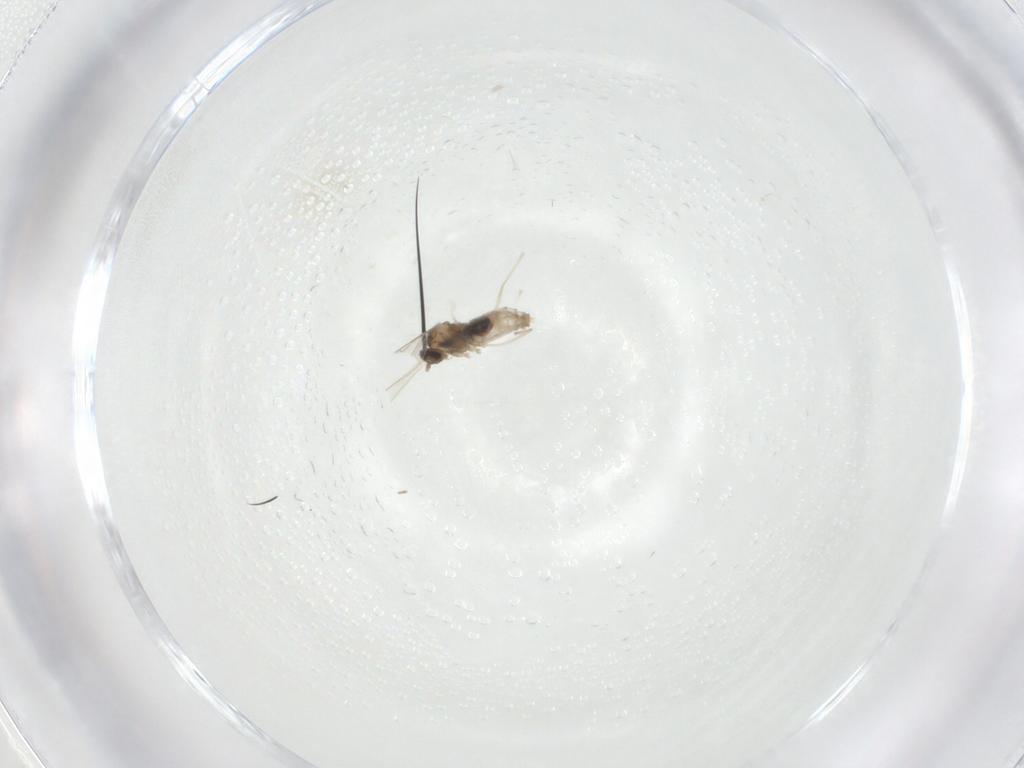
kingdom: Animalia
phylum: Arthropoda
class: Insecta
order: Diptera
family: Cecidomyiidae
